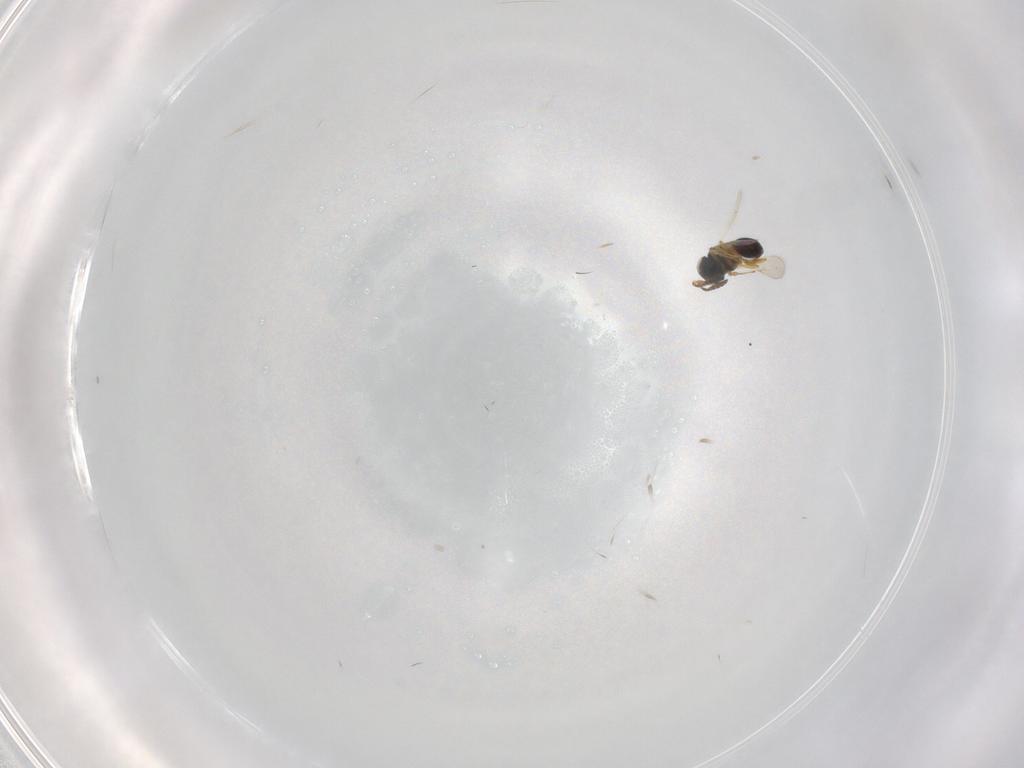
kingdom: Animalia
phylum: Arthropoda
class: Insecta
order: Hymenoptera
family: Scelionidae
